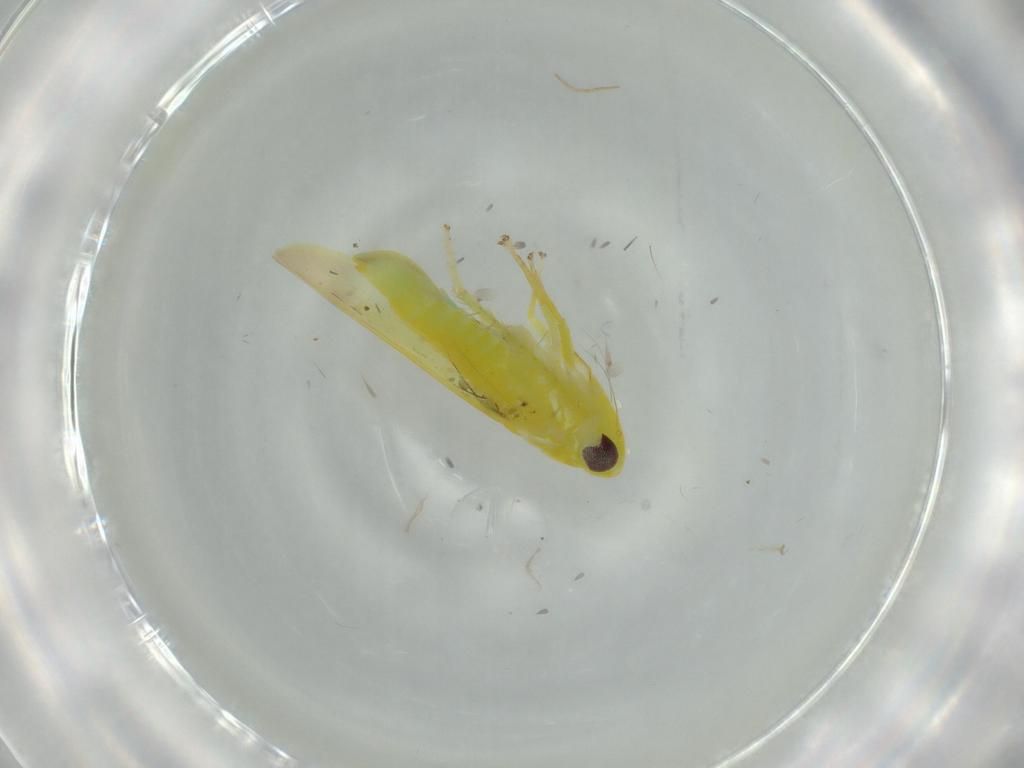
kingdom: Animalia
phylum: Arthropoda
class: Insecta
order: Hemiptera
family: Cicadellidae
